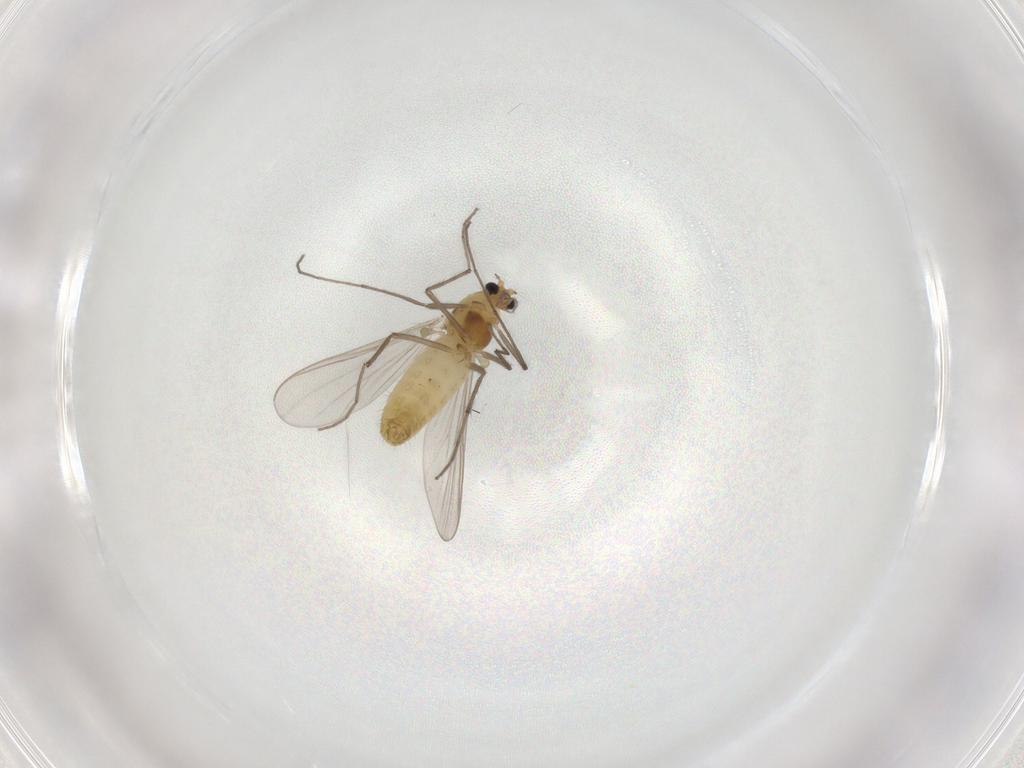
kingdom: Animalia
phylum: Arthropoda
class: Insecta
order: Diptera
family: Chironomidae
